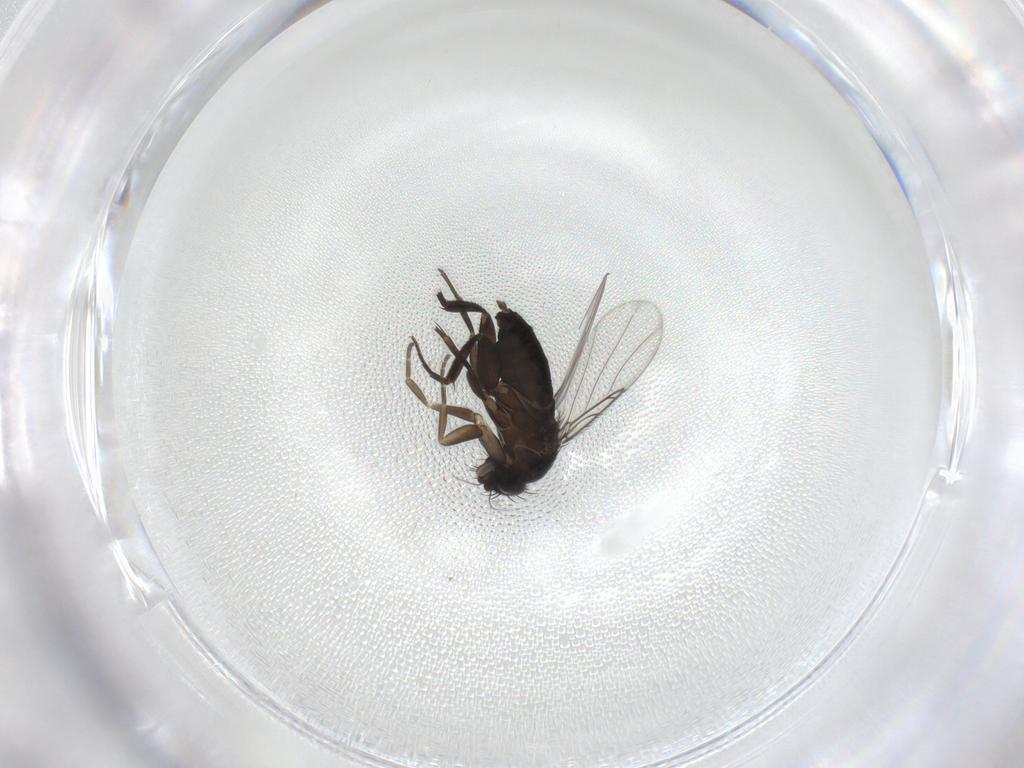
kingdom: Animalia
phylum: Arthropoda
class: Insecta
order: Diptera
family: Phoridae
